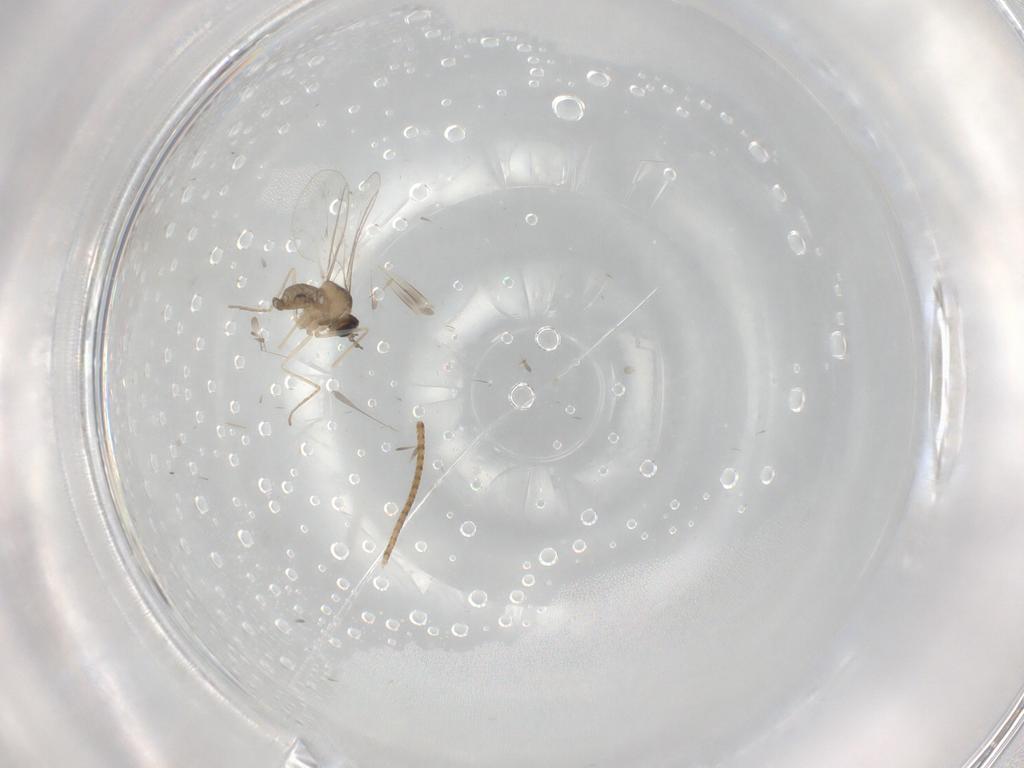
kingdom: Animalia
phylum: Arthropoda
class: Insecta
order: Diptera
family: Cecidomyiidae
